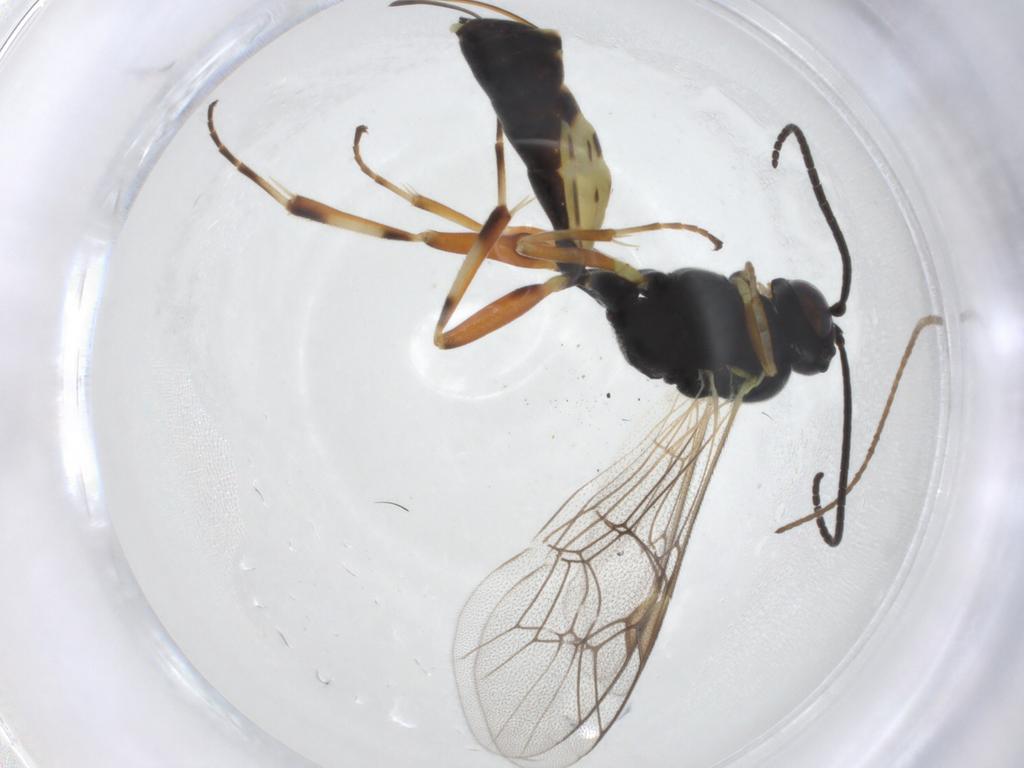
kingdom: Animalia
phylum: Arthropoda
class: Insecta
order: Hymenoptera
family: Ichneumonidae
